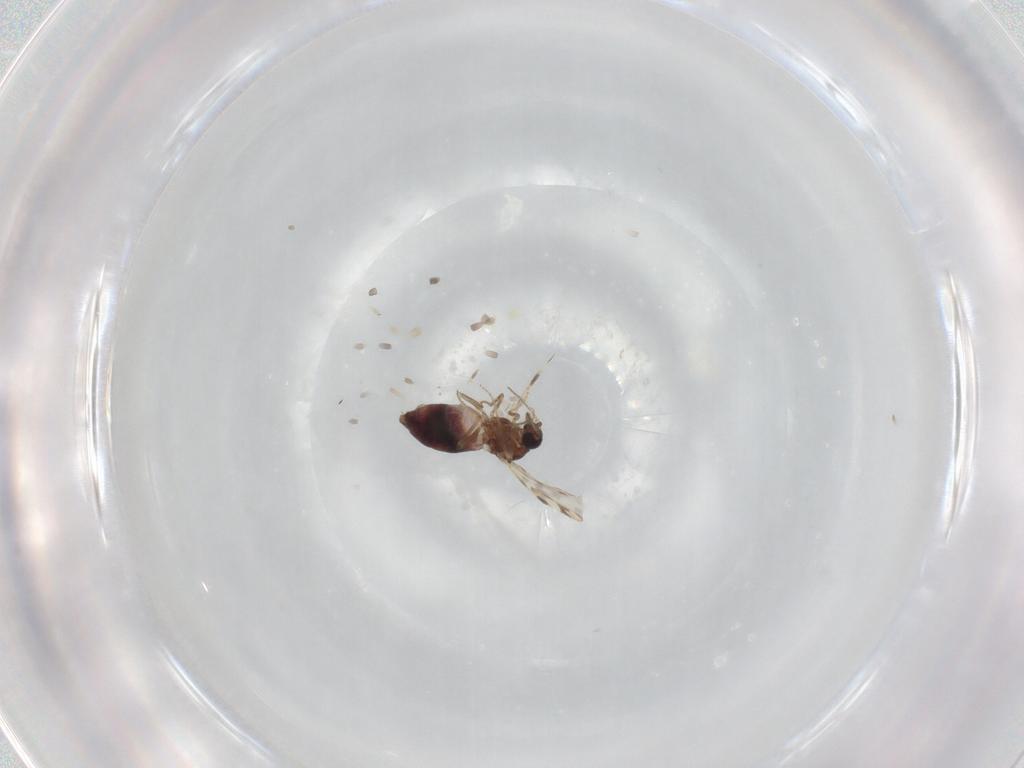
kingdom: Animalia
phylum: Arthropoda
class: Insecta
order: Diptera
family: Ceratopogonidae
